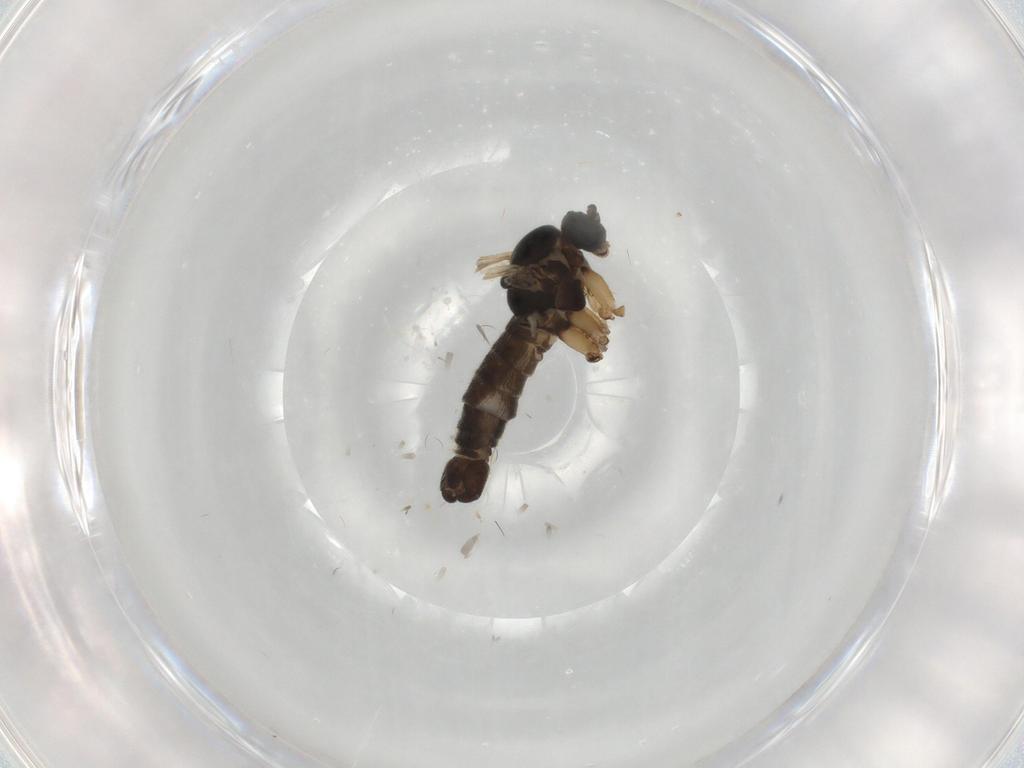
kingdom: Animalia
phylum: Arthropoda
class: Insecta
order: Diptera
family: Sciaridae
